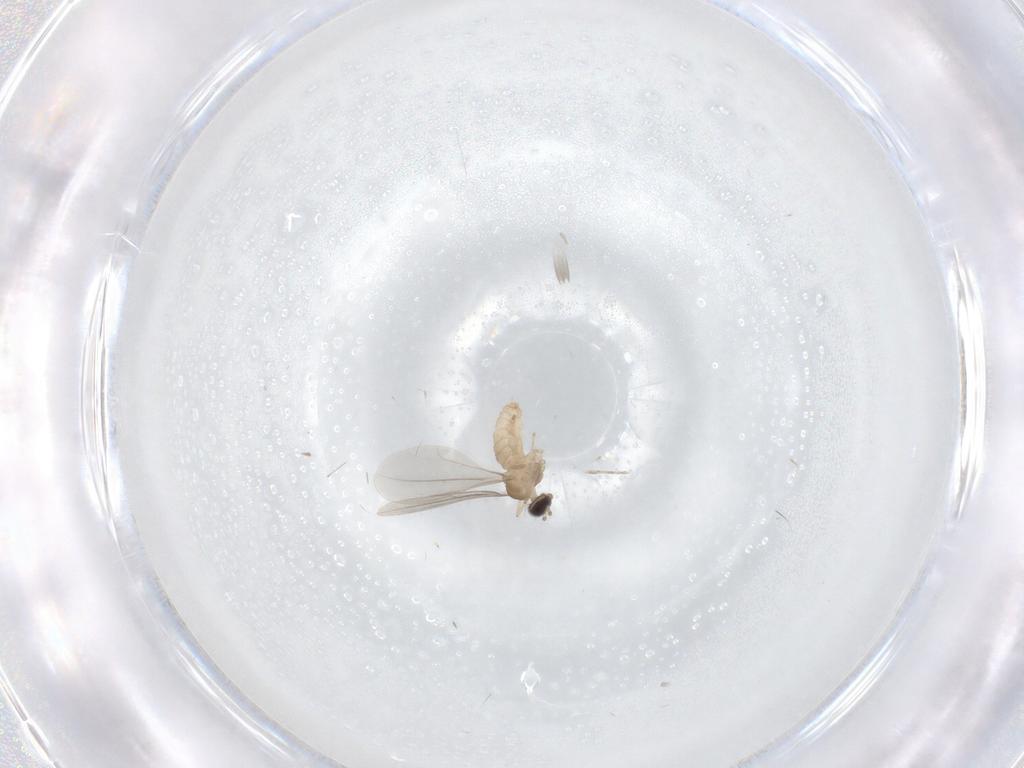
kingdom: Animalia
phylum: Arthropoda
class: Insecta
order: Diptera
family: Cecidomyiidae
